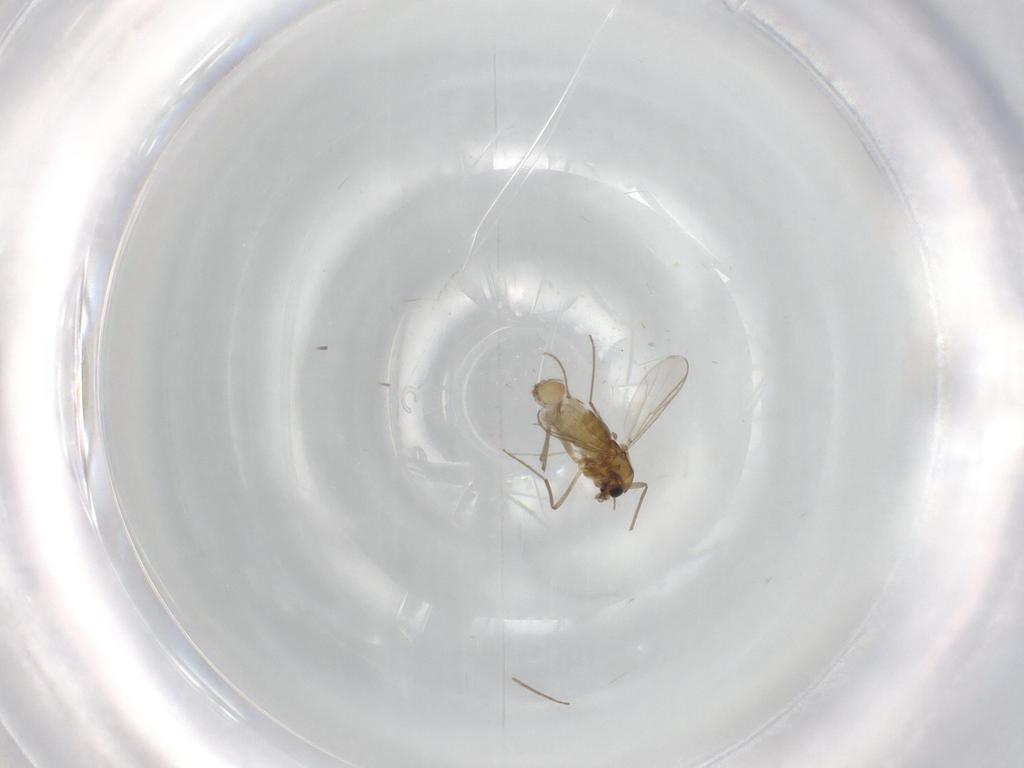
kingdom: Animalia
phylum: Arthropoda
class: Insecta
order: Diptera
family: Chironomidae
